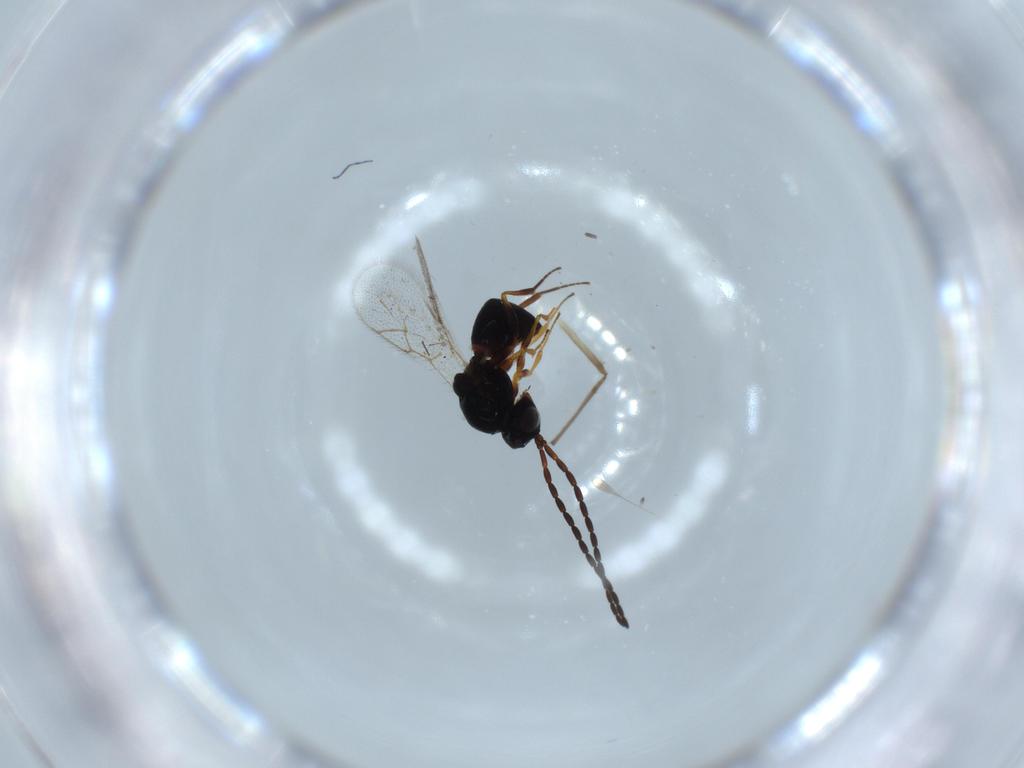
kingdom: Animalia
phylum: Arthropoda
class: Insecta
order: Hymenoptera
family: Figitidae
